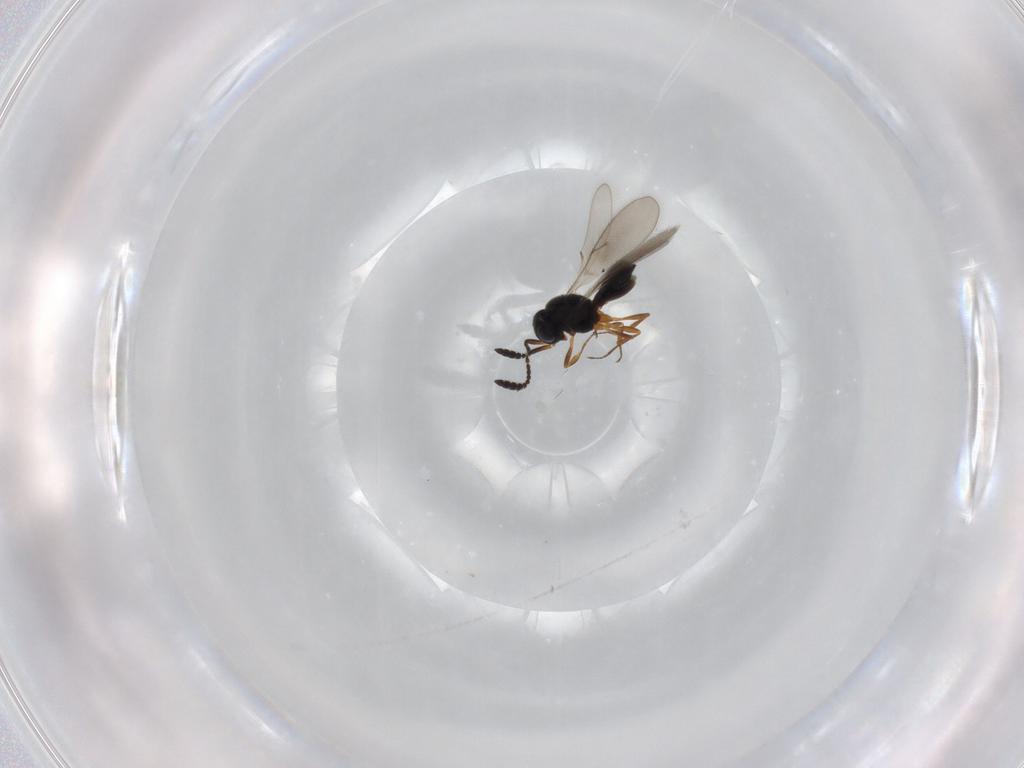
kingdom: Animalia
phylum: Arthropoda
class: Insecta
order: Hymenoptera
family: Scelionidae
